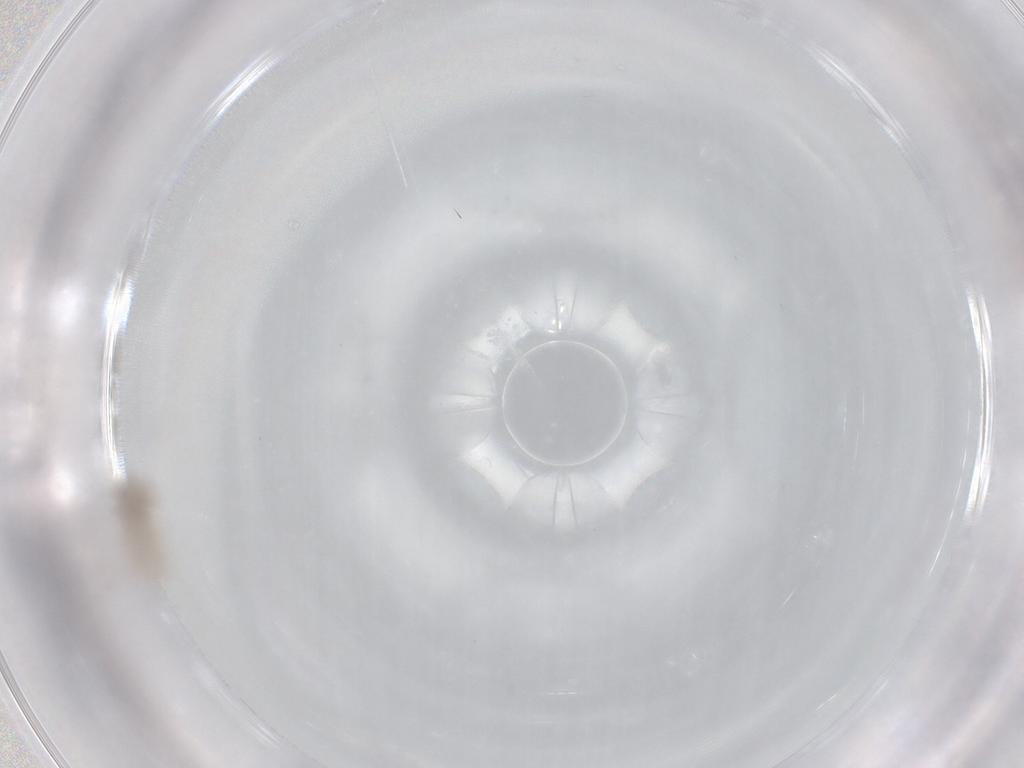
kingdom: Animalia
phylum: Arthropoda
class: Insecta
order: Diptera
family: Cecidomyiidae
